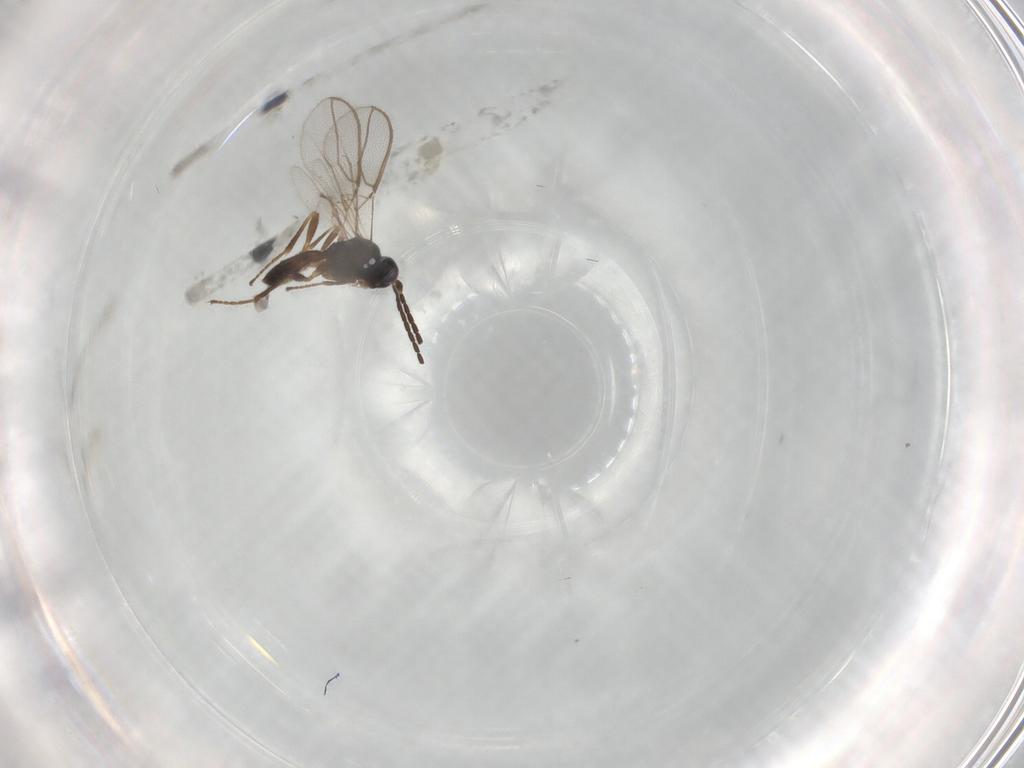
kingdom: Animalia
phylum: Arthropoda
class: Insecta
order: Hymenoptera
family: Braconidae
